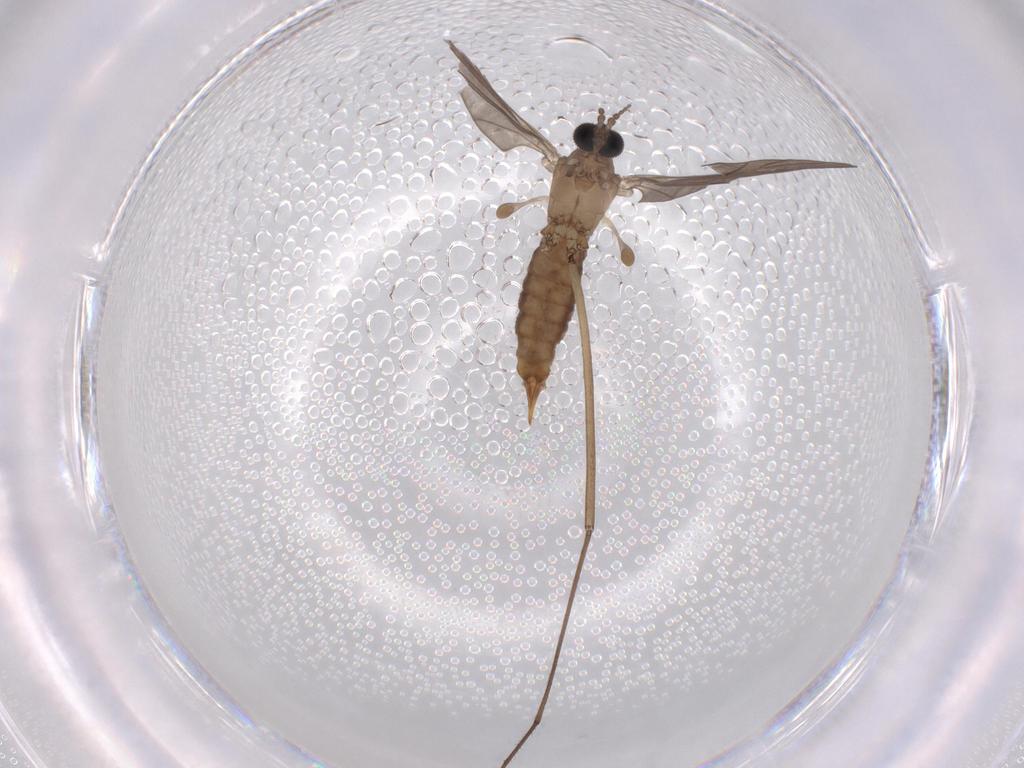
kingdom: Animalia
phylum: Arthropoda
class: Insecta
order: Diptera
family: Limoniidae
